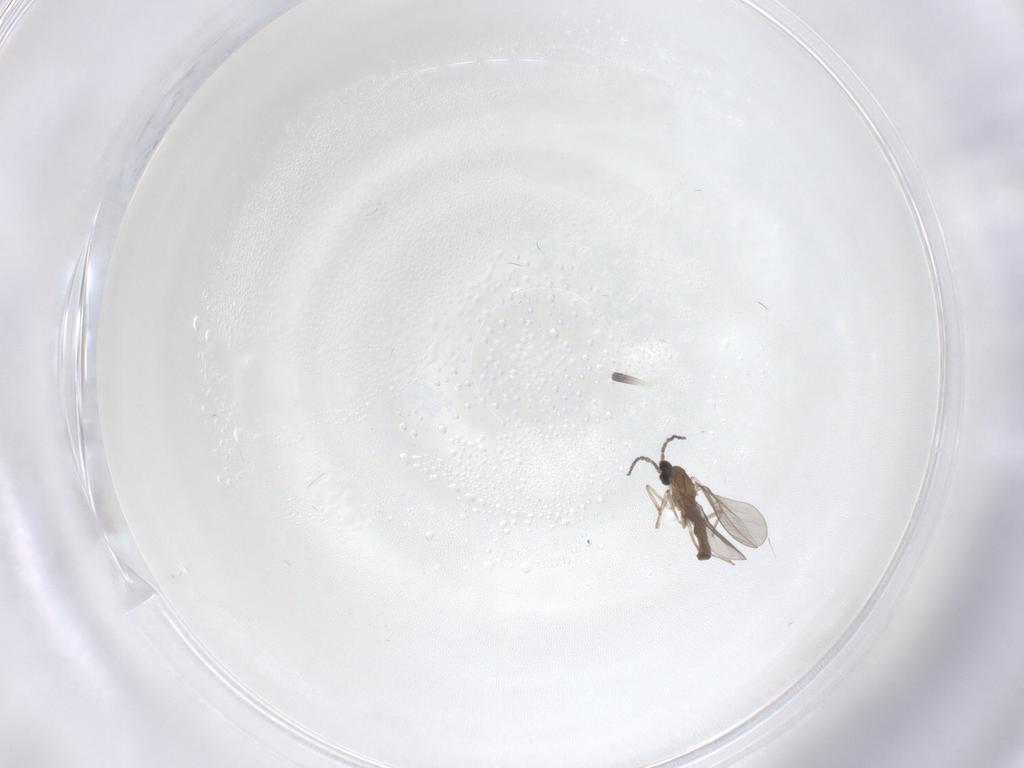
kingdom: Animalia
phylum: Arthropoda
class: Insecta
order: Diptera
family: Cecidomyiidae
